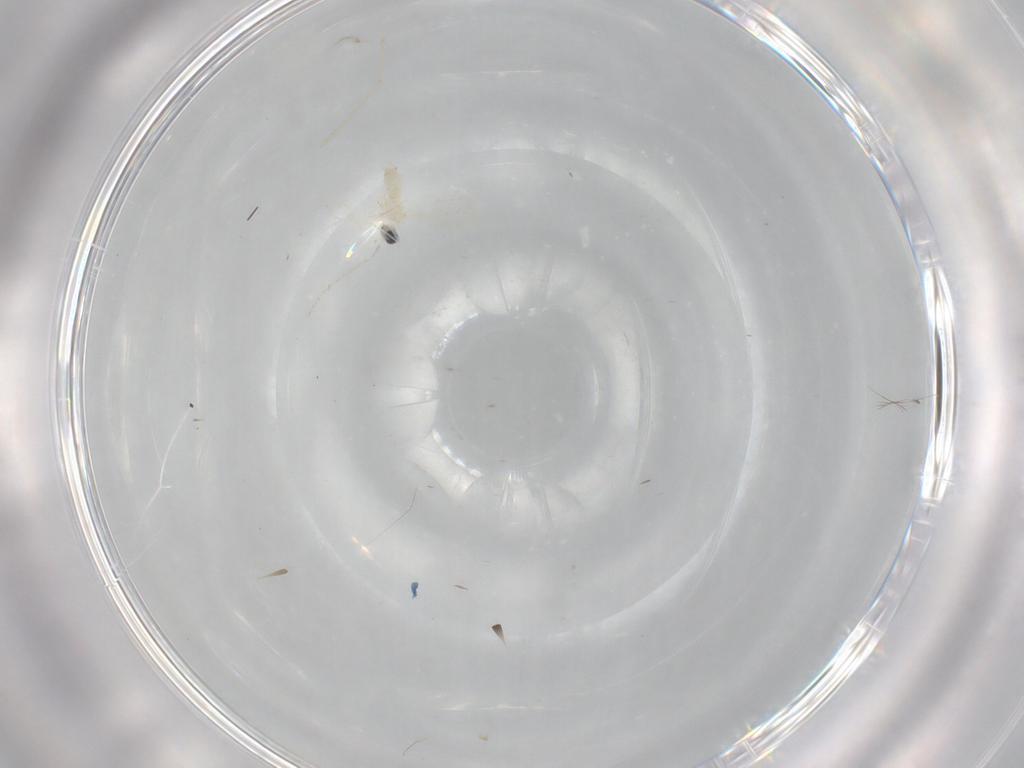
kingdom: Animalia
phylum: Arthropoda
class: Insecta
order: Diptera
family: Cecidomyiidae
